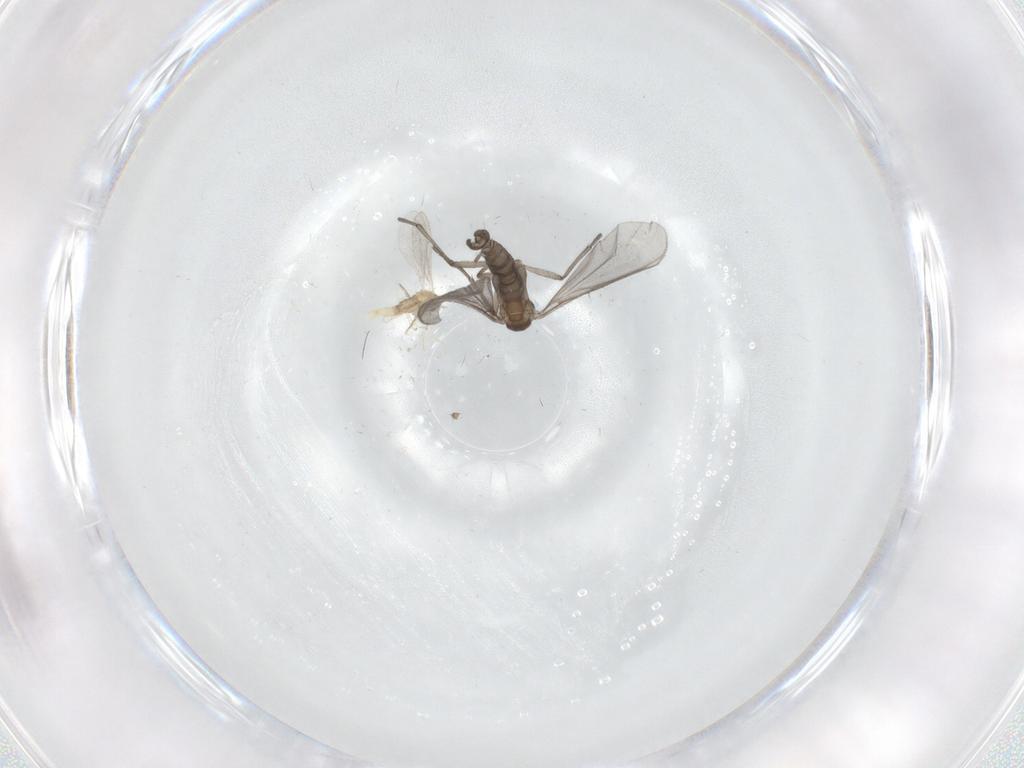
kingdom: Animalia
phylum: Arthropoda
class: Insecta
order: Diptera
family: Sciaridae
